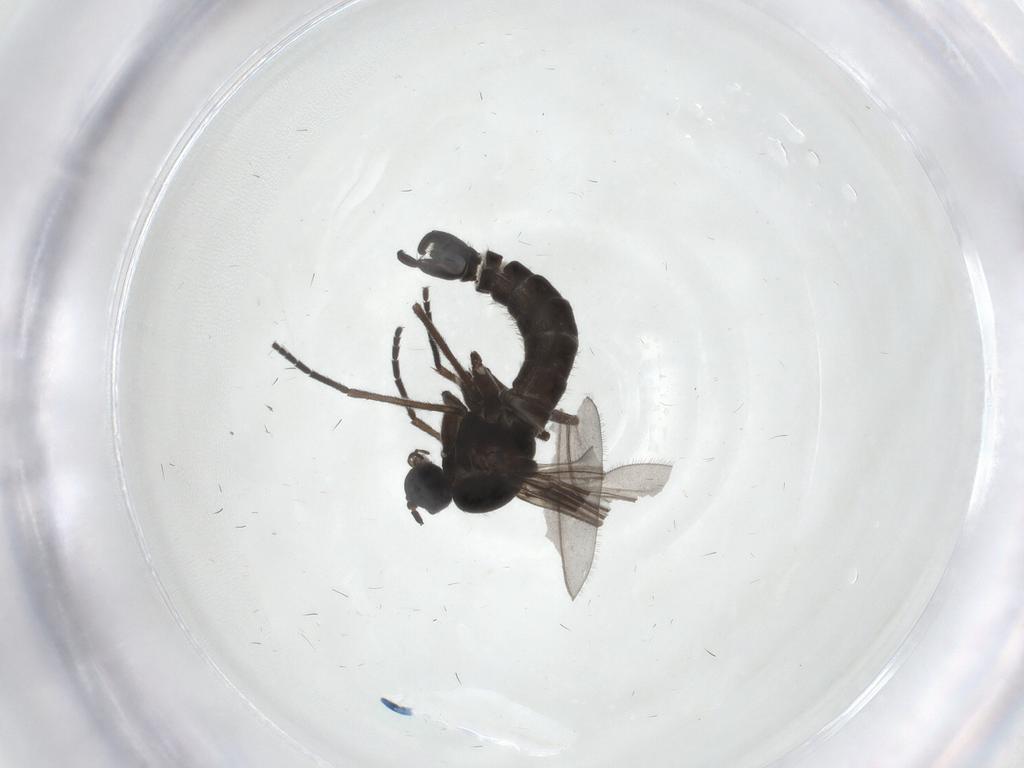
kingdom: Animalia
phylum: Arthropoda
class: Insecta
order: Diptera
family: Sciaridae
